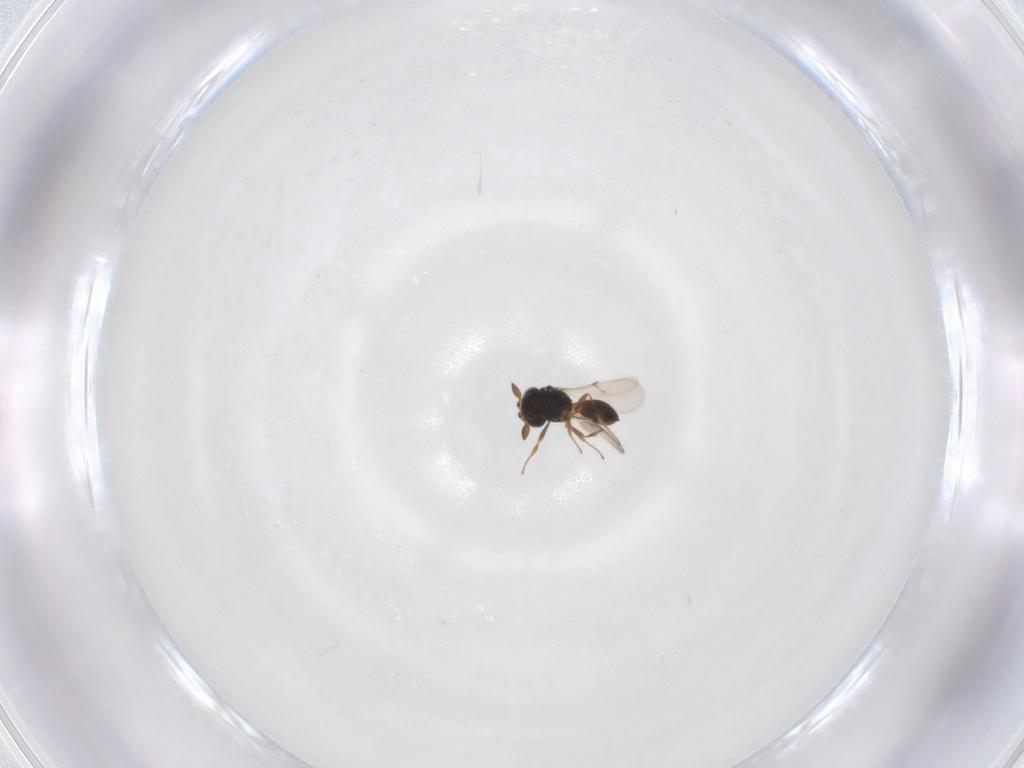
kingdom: Animalia
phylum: Arthropoda
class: Insecta
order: Hymenoptera
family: Scelionidae
